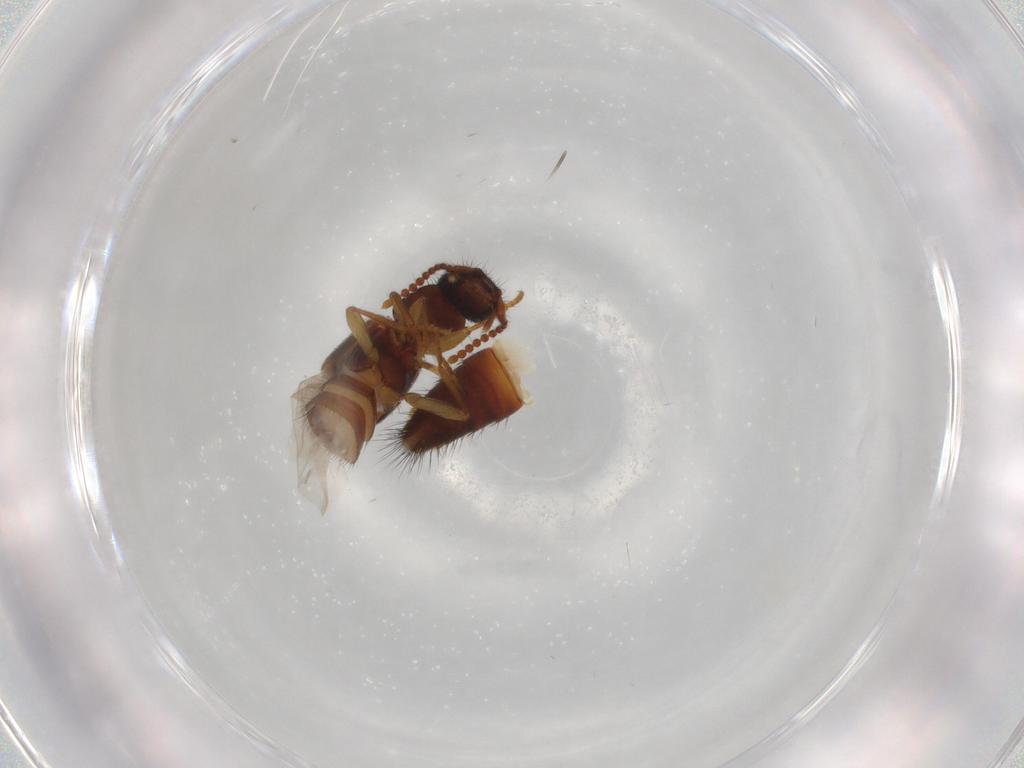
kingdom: Animalia
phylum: Arthropoda
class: Insecta
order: Coleoptera
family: Staphylinidae
